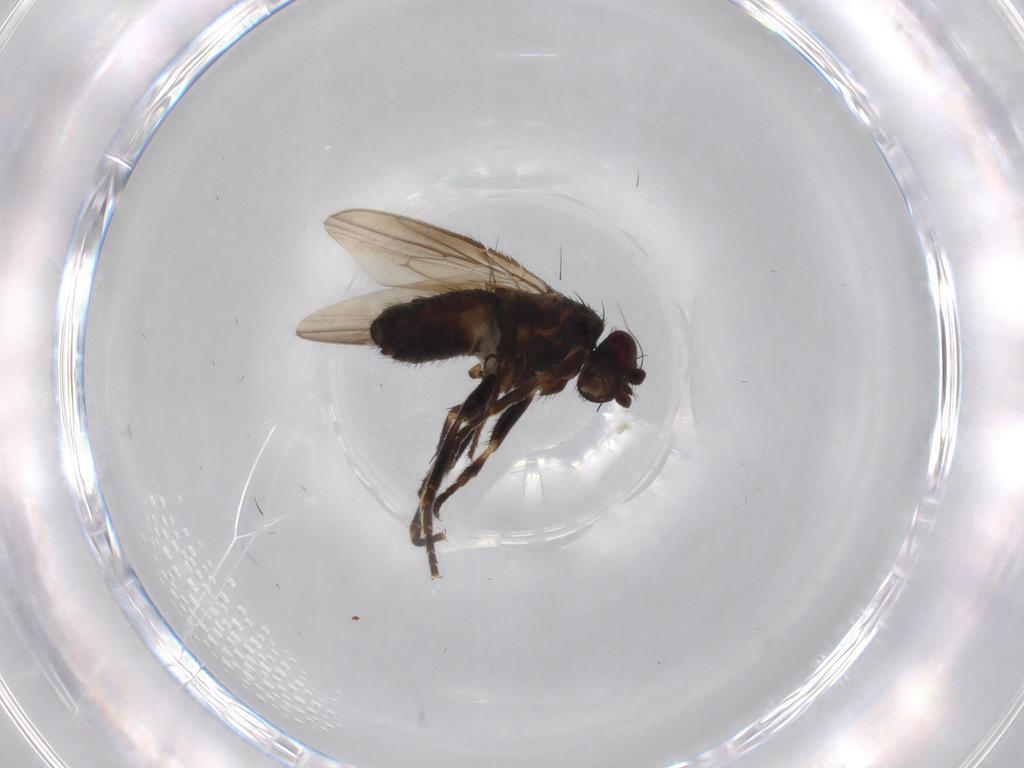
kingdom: Animalia
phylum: Arthropoda
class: Insecta
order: Diptera
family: Sphaeroceridae
